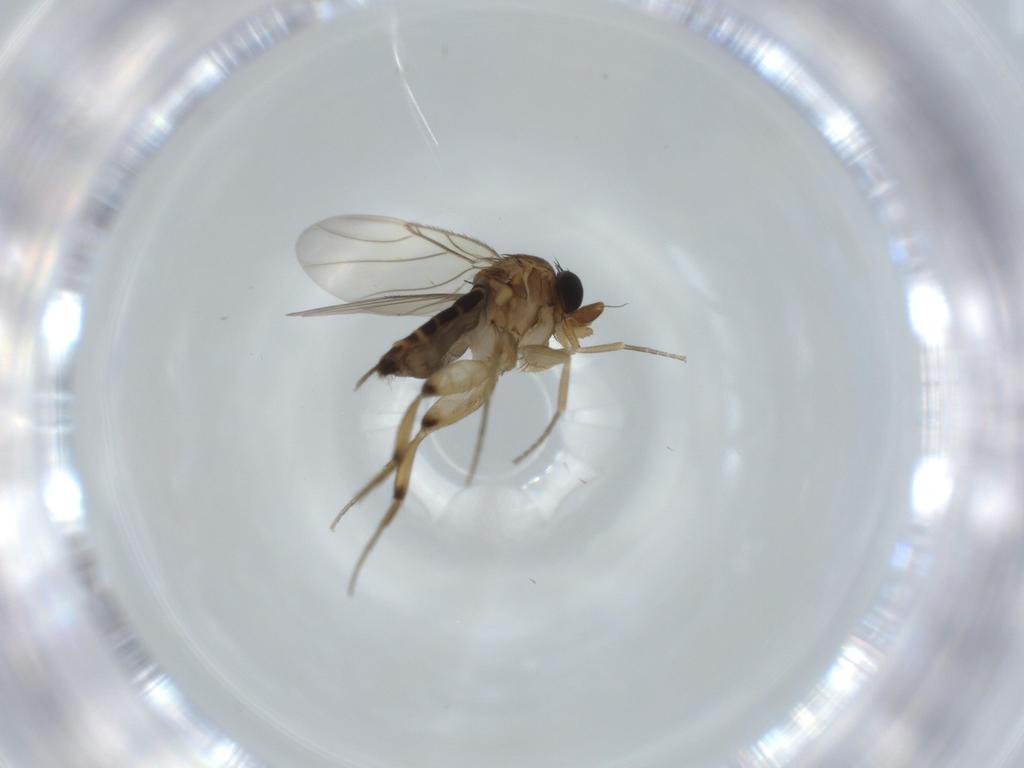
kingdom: Animalia
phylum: Arthropoda
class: Insecta
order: Diptera
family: Phoridae
